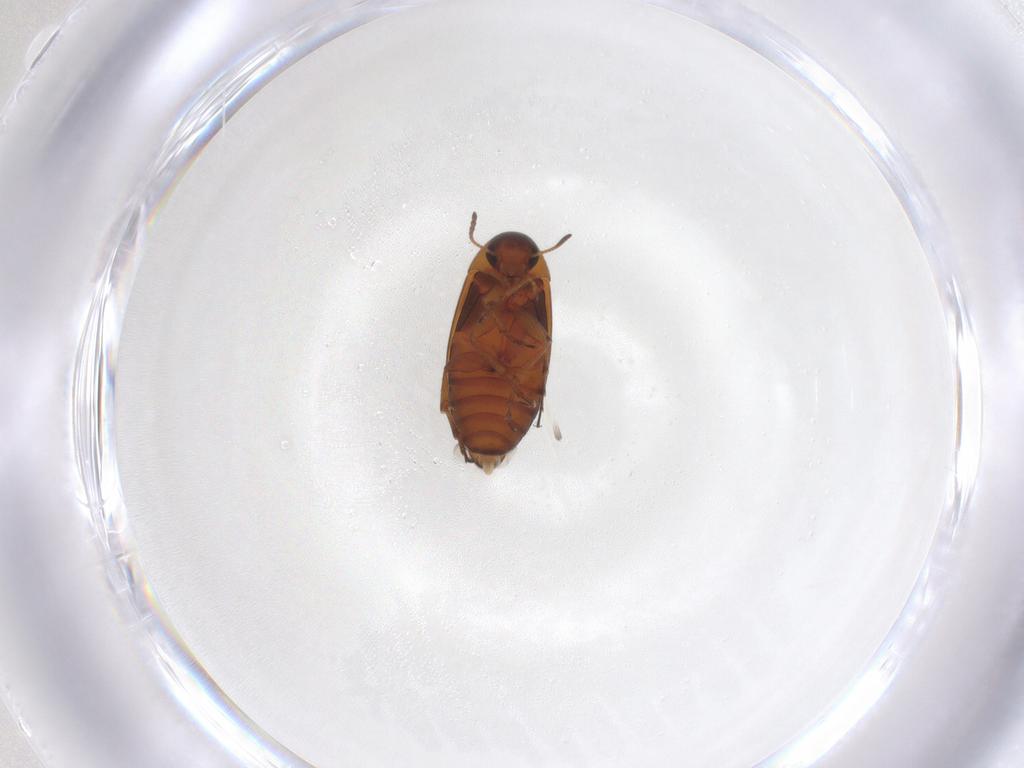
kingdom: Animalia
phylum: Arthropoda
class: Insecta
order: Coleoptera
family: Scraptiidae
